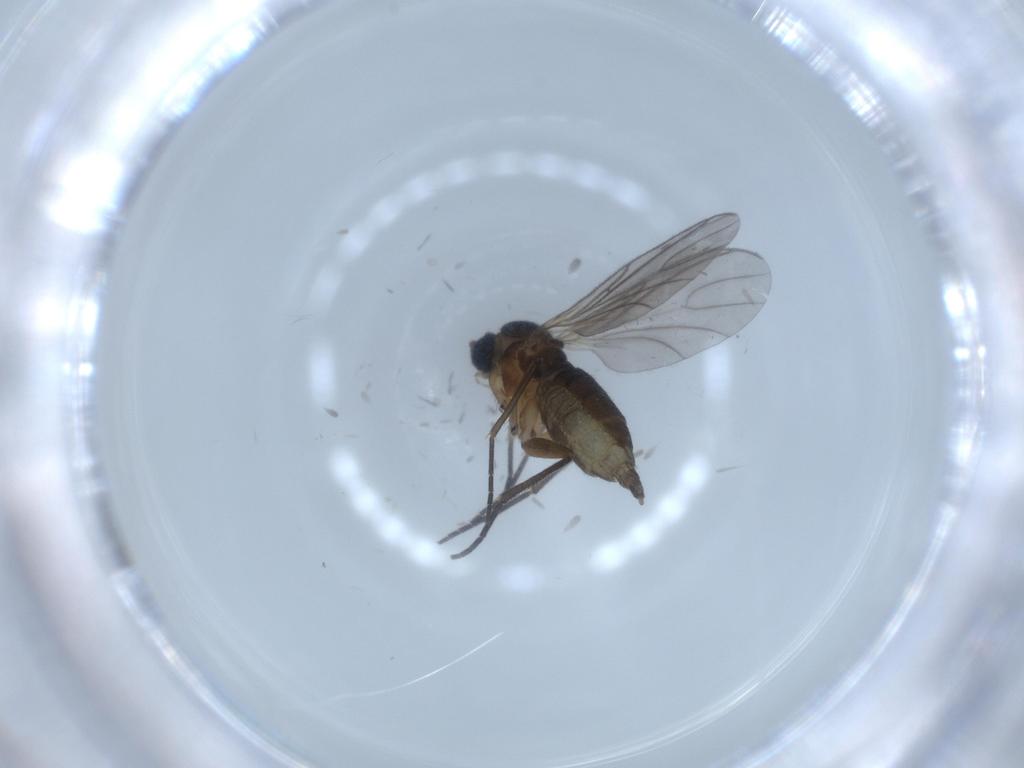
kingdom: Animalia
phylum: Arthropoda
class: Insecta
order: Diptera
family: Sciaridae
